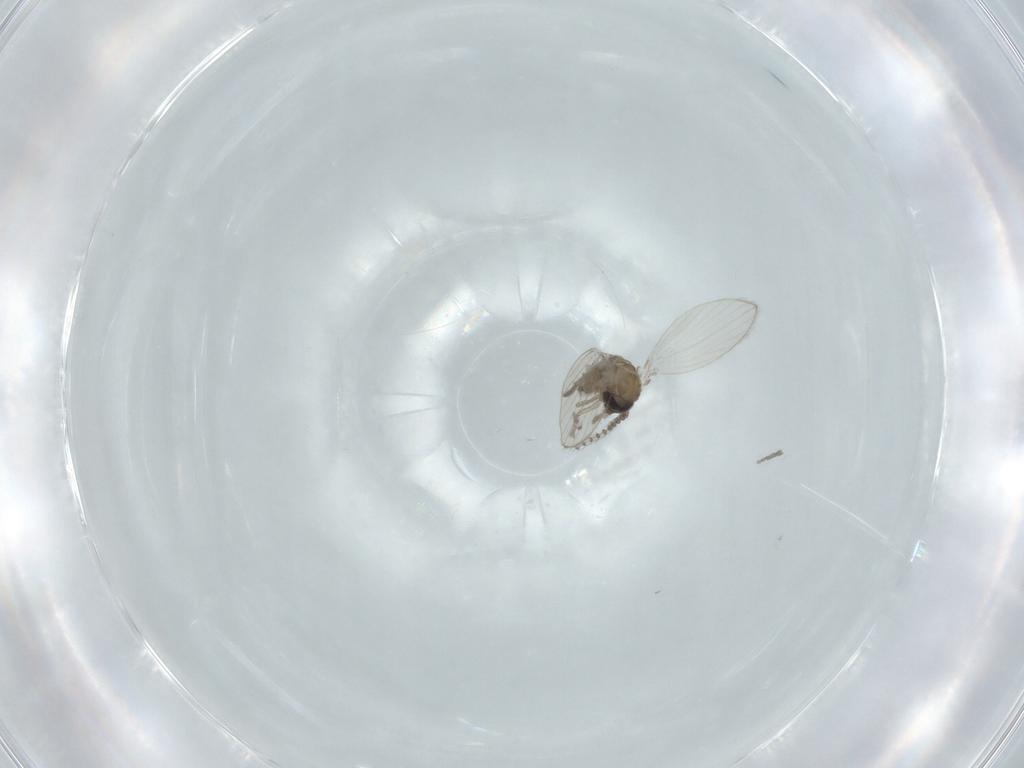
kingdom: Animalia
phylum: Arthropoda
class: Insecta
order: Diptera
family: Psychodidae
